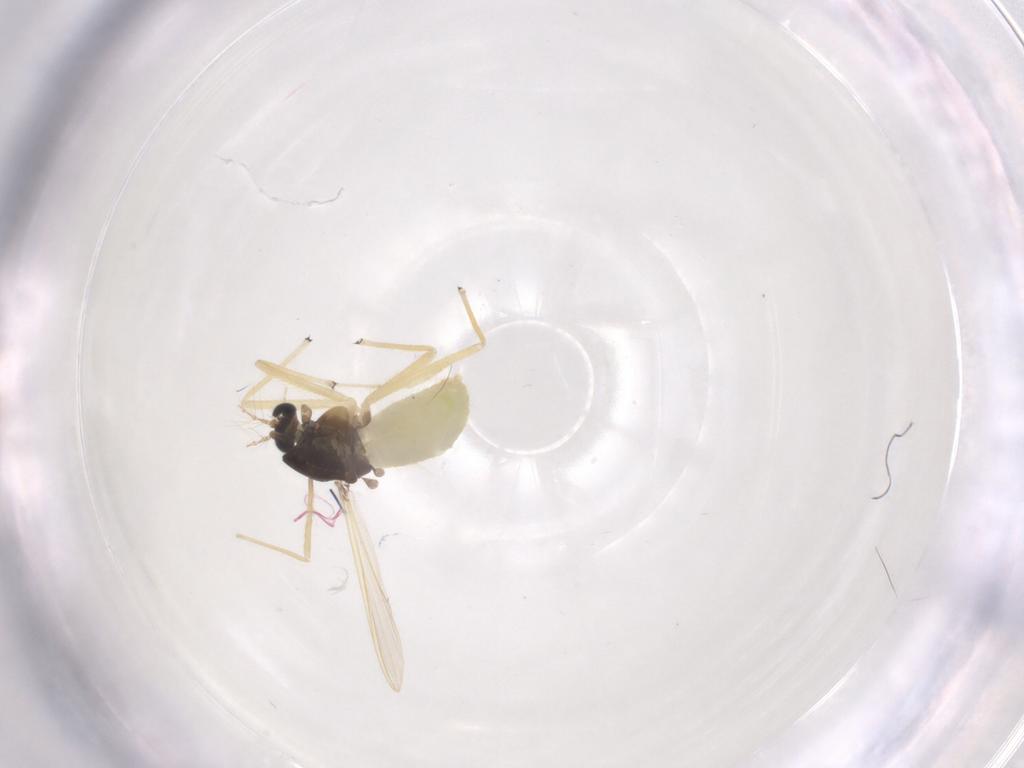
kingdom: Animalia
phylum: Arthropoda
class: Insecta
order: Diptera
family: Chironomidae
